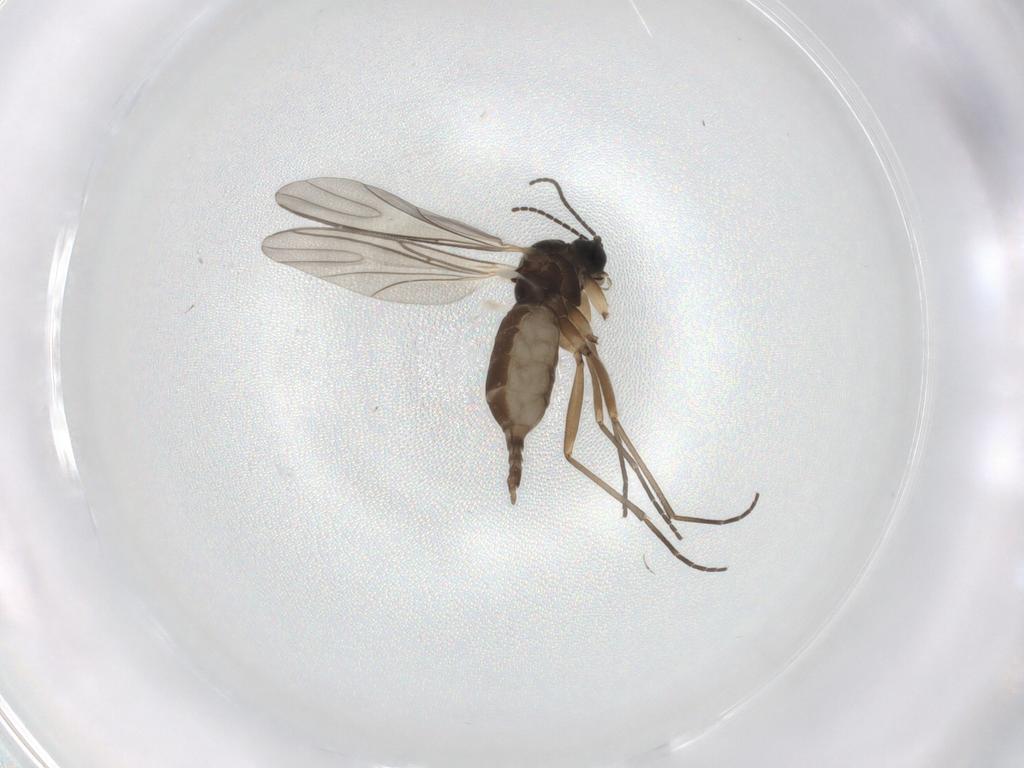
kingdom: Animalia
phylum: Arthropoda
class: Insecta
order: Diptera
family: Sciaridae
